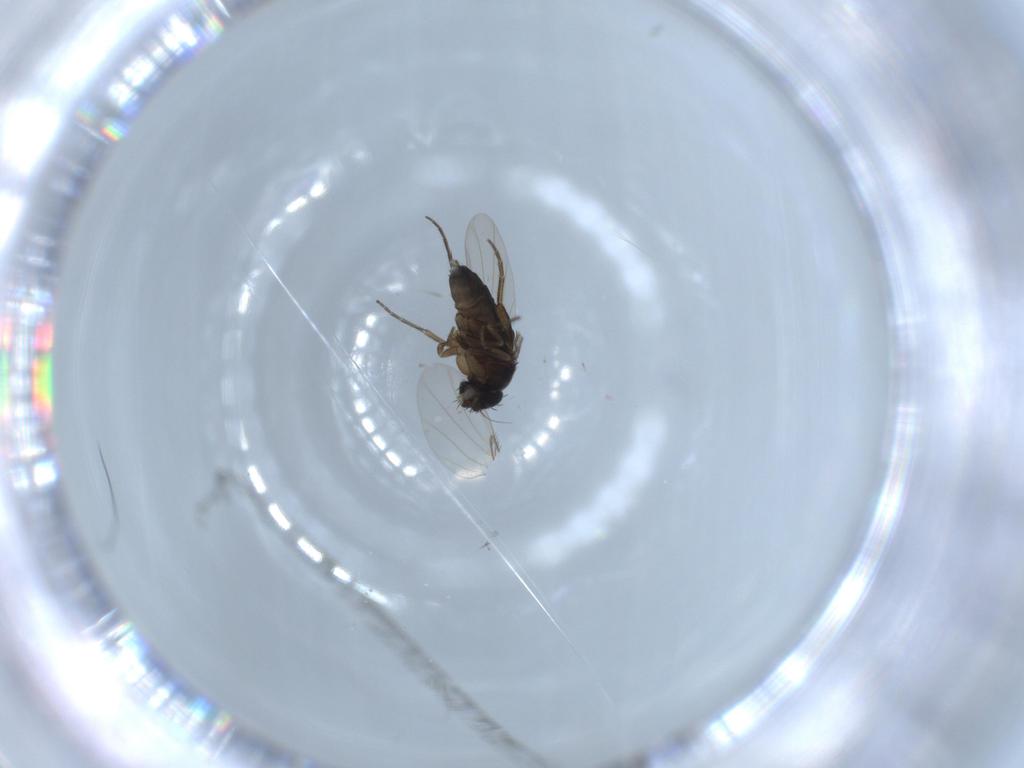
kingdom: Animalia
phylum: Arthropoda
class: Insecta
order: Diptera
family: Phoridae
